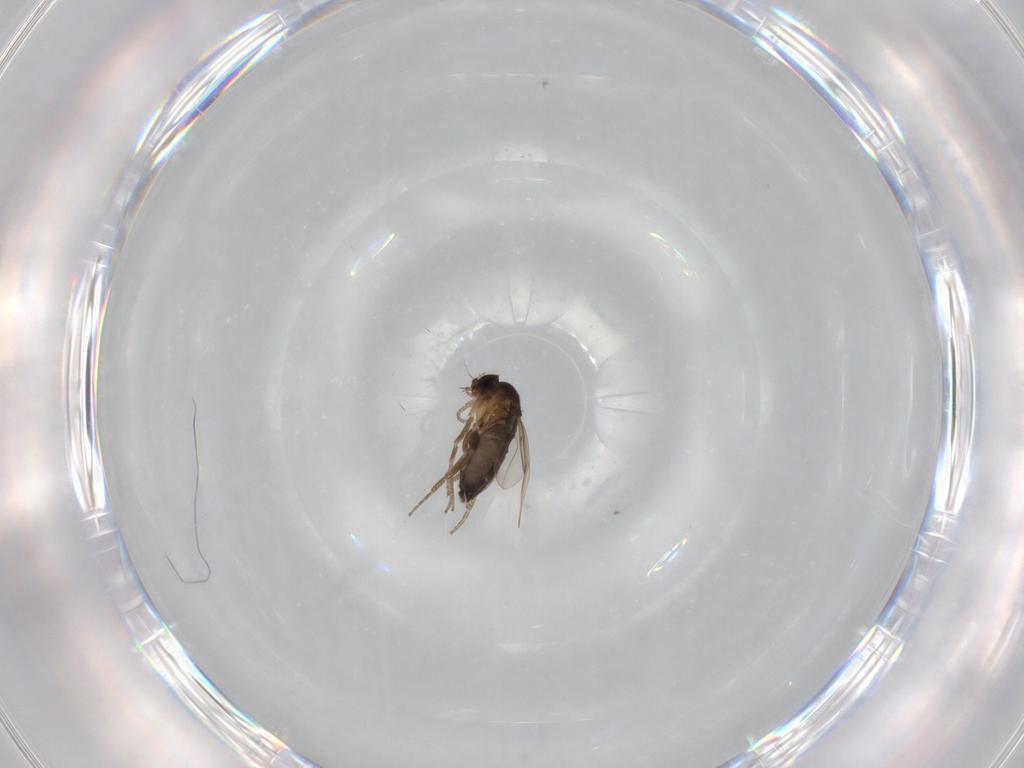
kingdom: Animalia
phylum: Arthropoda
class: Insecta
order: Diptera
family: Phoridae
